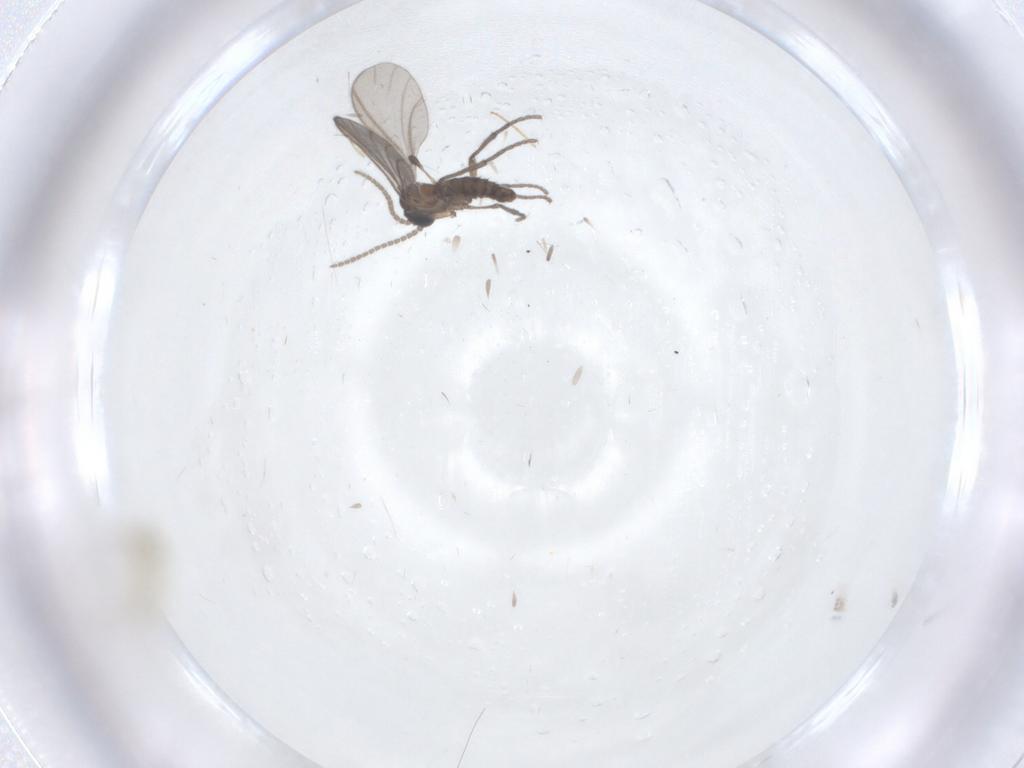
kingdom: Animalia
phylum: Arthropoda
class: Insecta
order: Diptera
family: Cecidomyiidae
